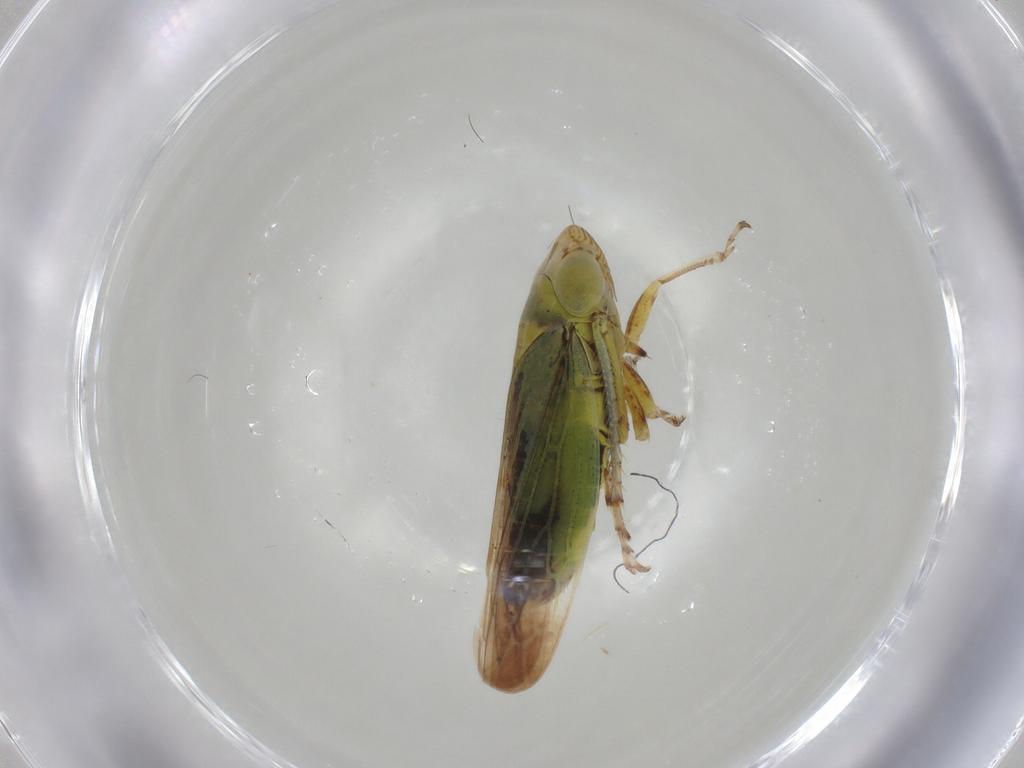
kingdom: Animalia
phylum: Arthropoda
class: Insecta
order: Hemiptera
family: Cicadellidae
